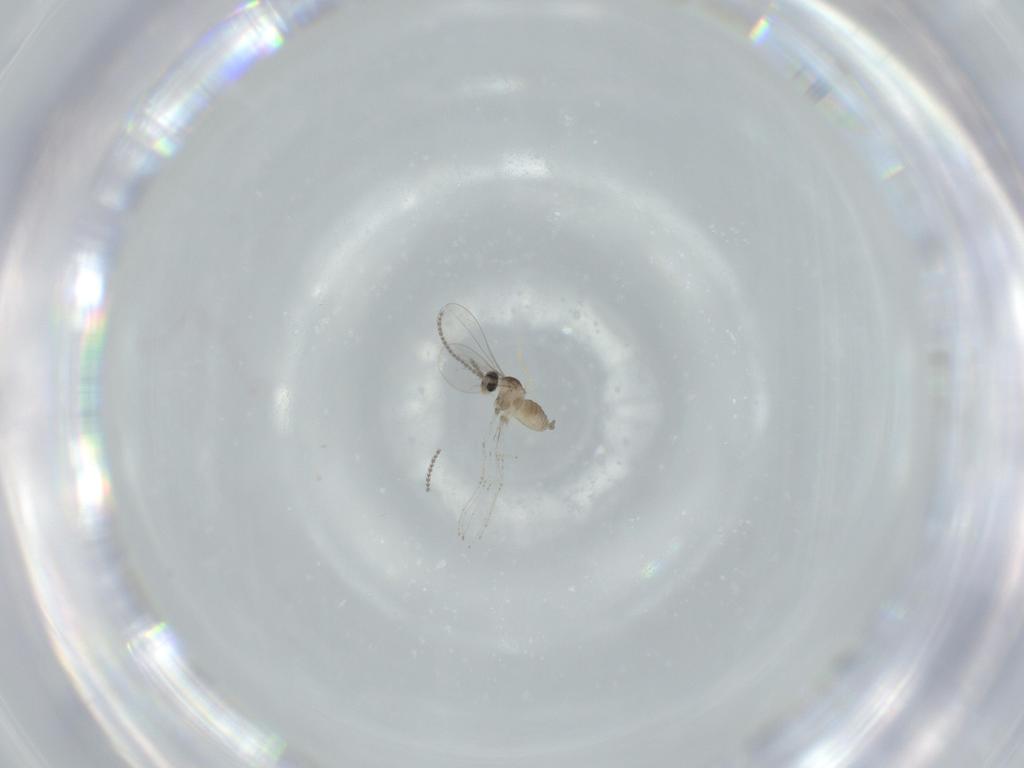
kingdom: Animalia
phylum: Arthropoda
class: Insecta
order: Diptera
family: Cecidomyiidae
